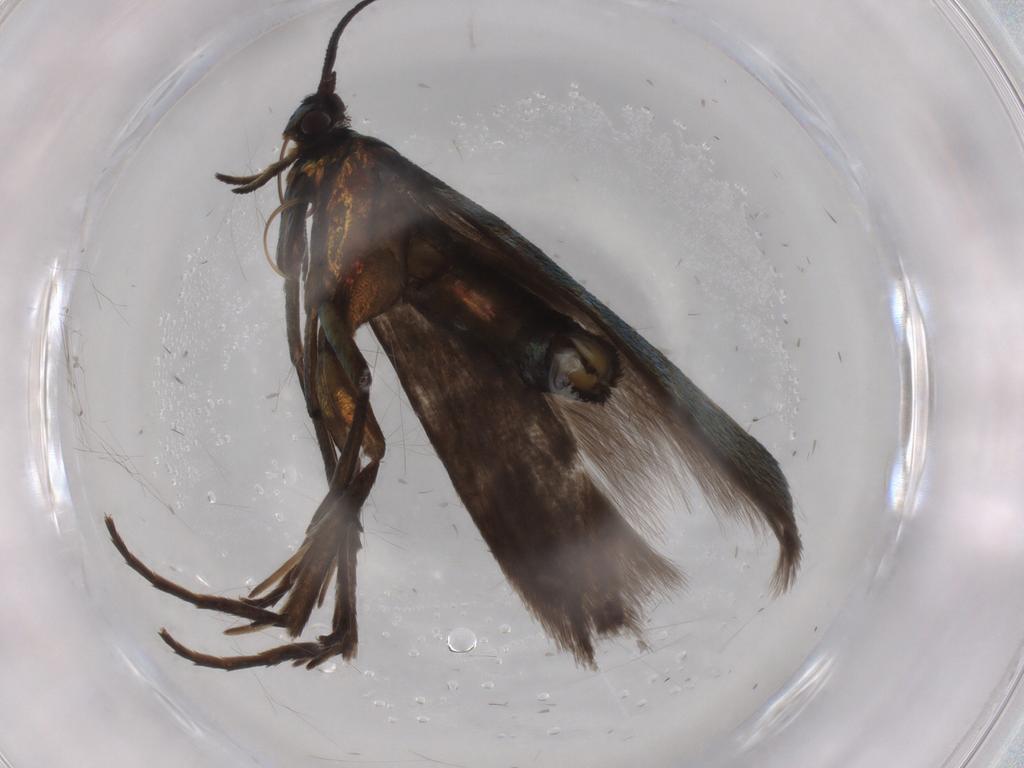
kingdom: Animalia
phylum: Arthropoda
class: Insecta
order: Lepidoptera
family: Argyresthiidae
